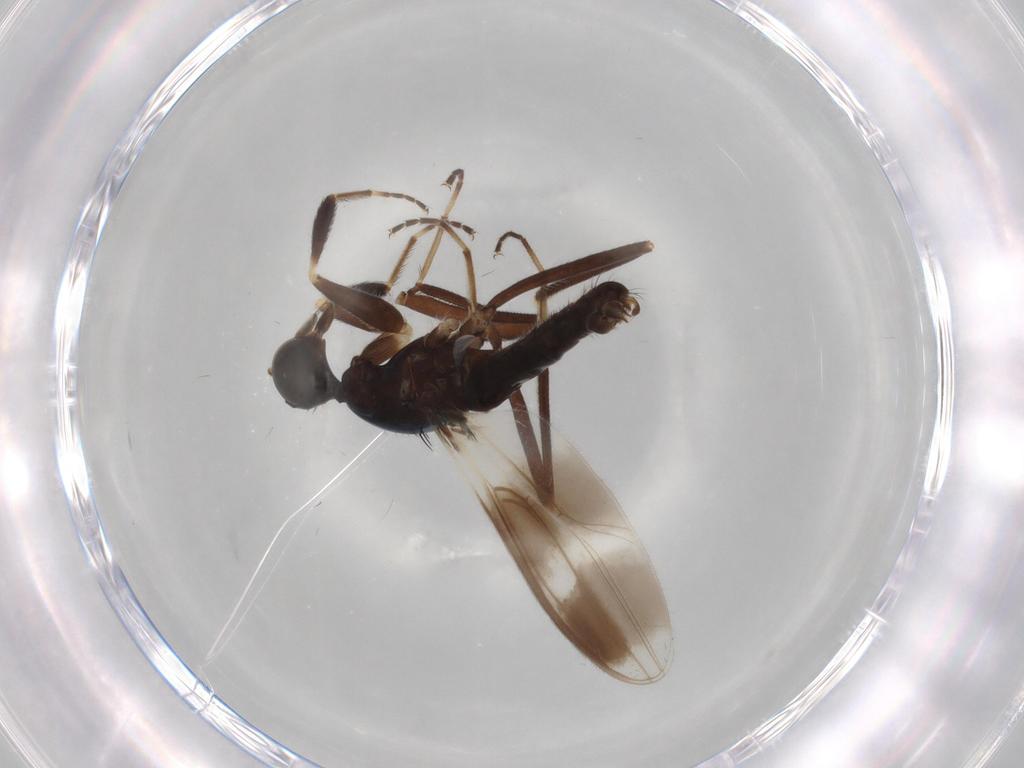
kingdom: Animalia
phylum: Arthropoda
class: Insecta
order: Diptera
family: Hybotidae
